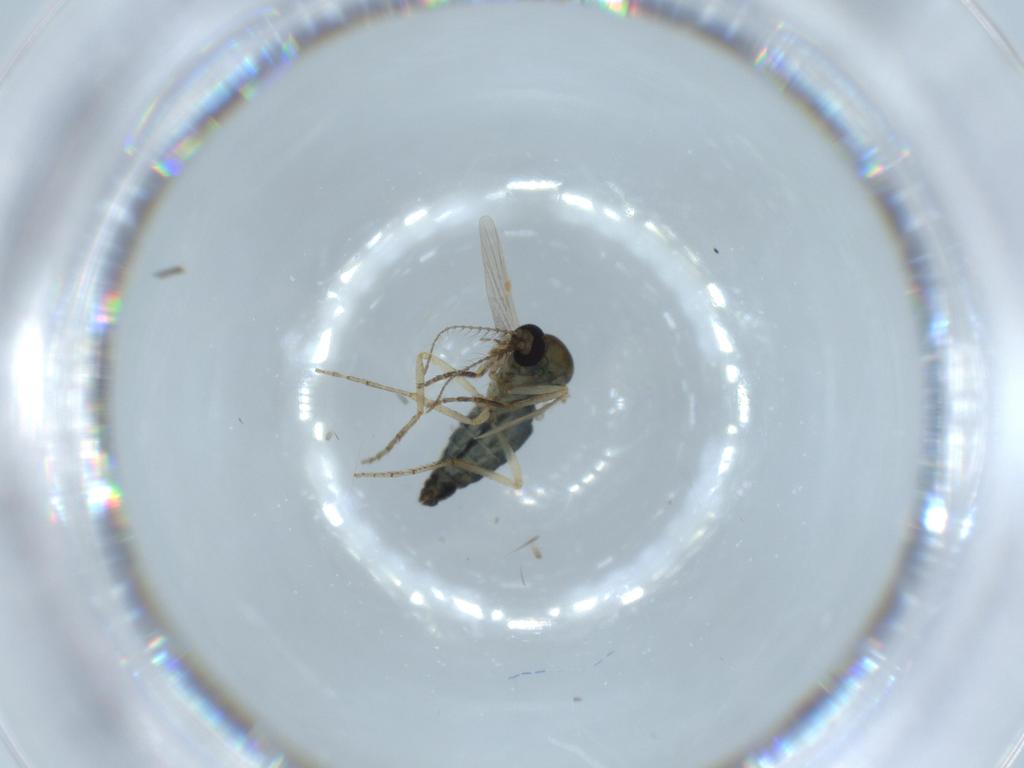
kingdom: Animalia
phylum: Arthropoda
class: Insecta
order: Diptera
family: Ceratopogonidae
